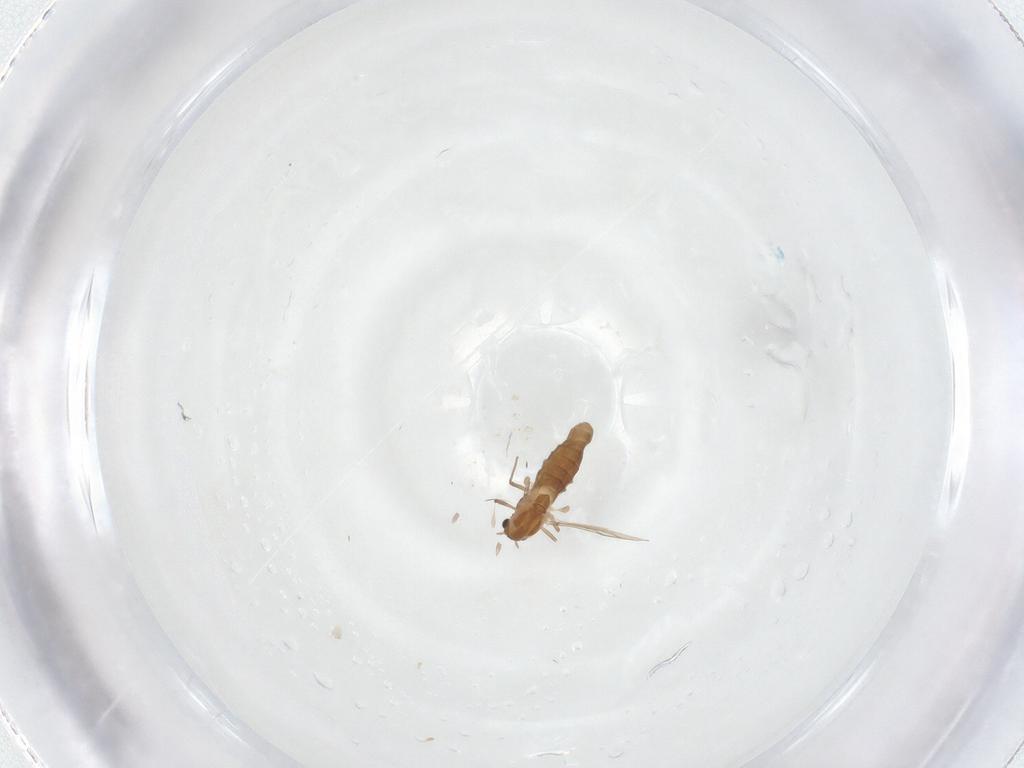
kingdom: Animalia
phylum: Arthropoda
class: Insecta
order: Diptera
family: Chironomidae
